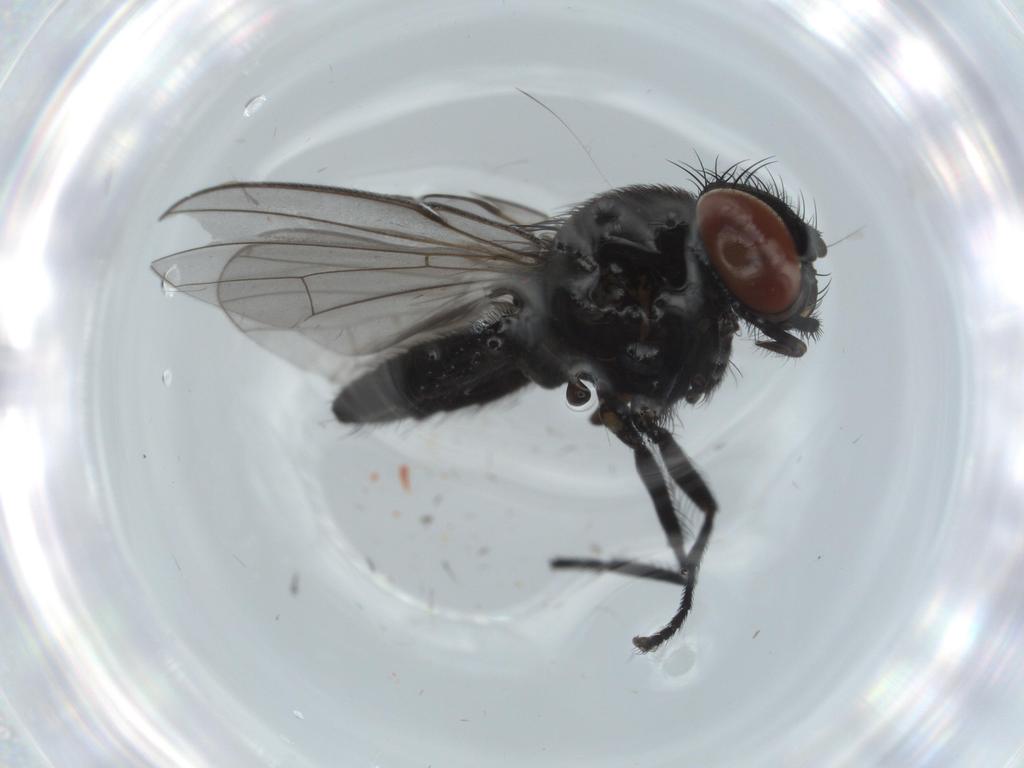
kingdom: Animalia
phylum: Arthropoda
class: Insecta
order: Diptera
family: Milichiidae
